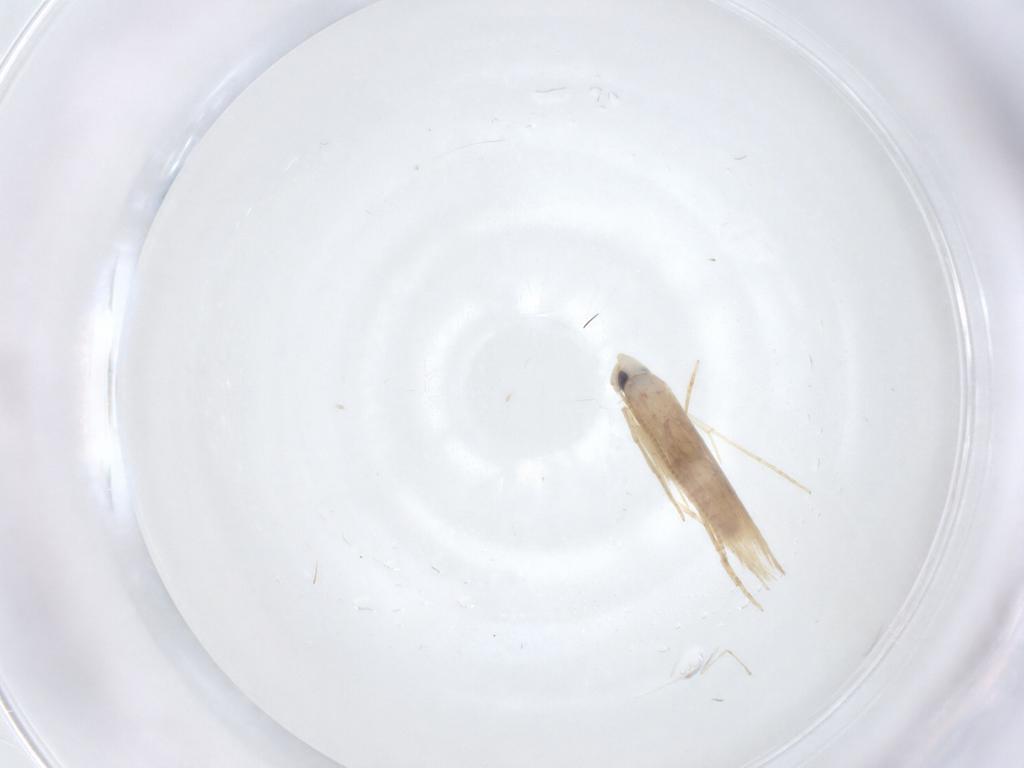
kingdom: Animalia
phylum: Arthropoda
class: Insecta
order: Lepidoptera
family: Tineidae
